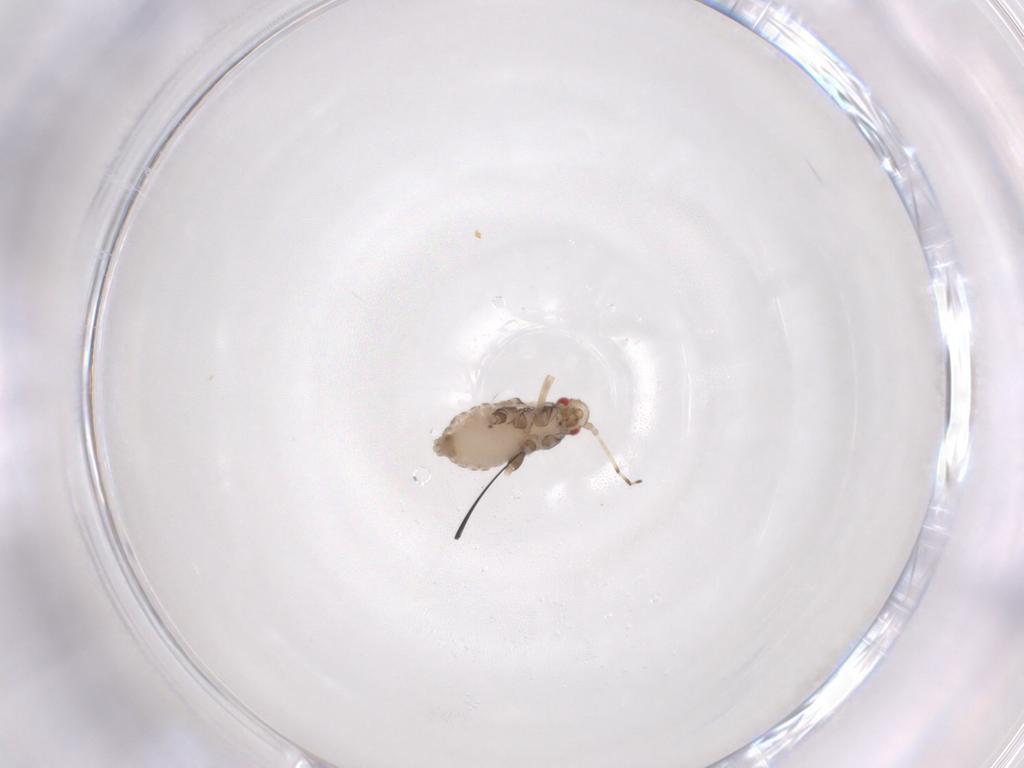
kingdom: Animalia
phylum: Arthropoda
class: Insecta
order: Hemiptera
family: Aphididae
